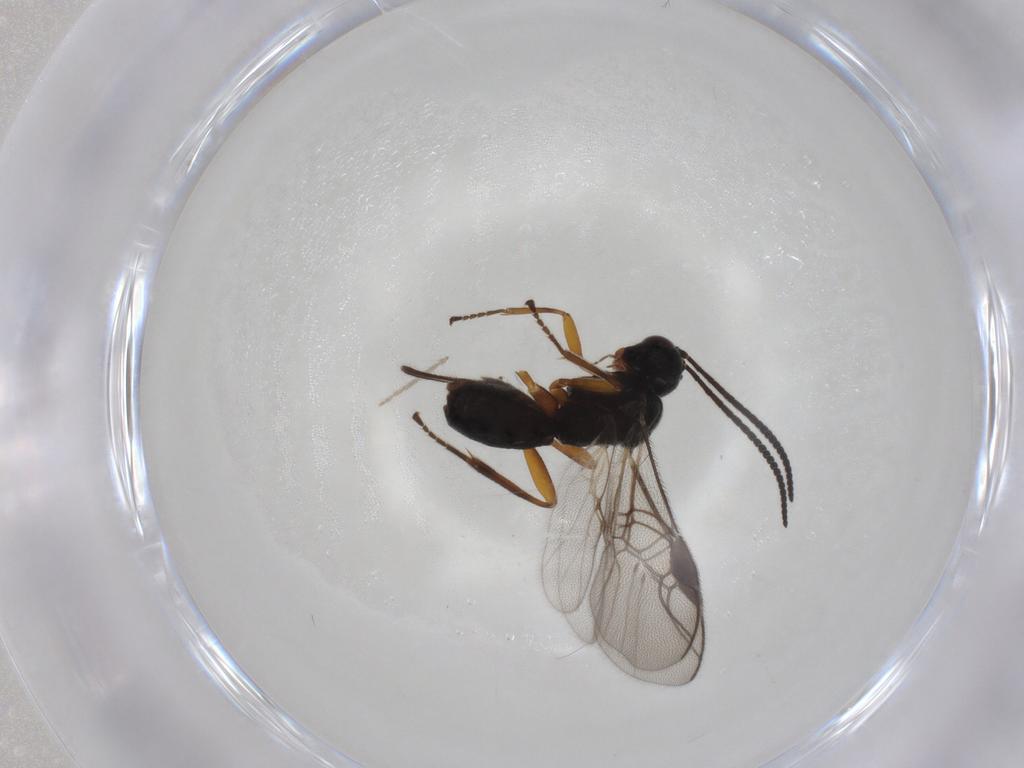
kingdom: Animalia
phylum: Arthropoda
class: Insecta
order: Hymenoptera
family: Braconidae
